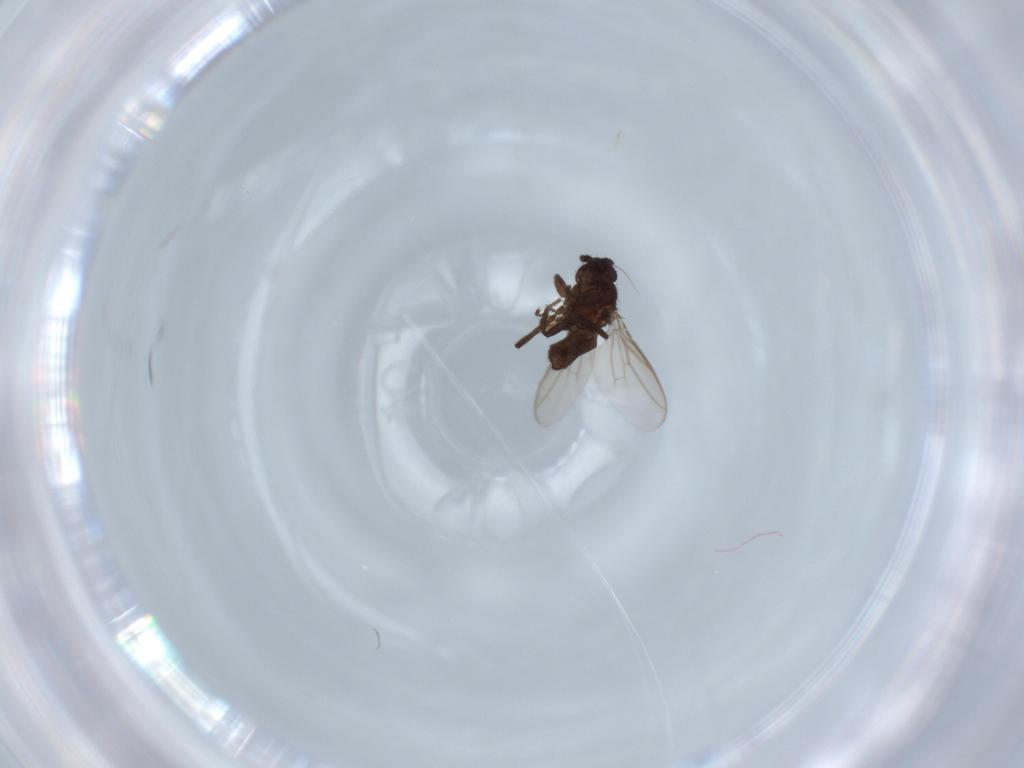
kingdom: Animalia
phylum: Arthropoda
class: Insecta
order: Diptera
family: Sphaeroceridae
